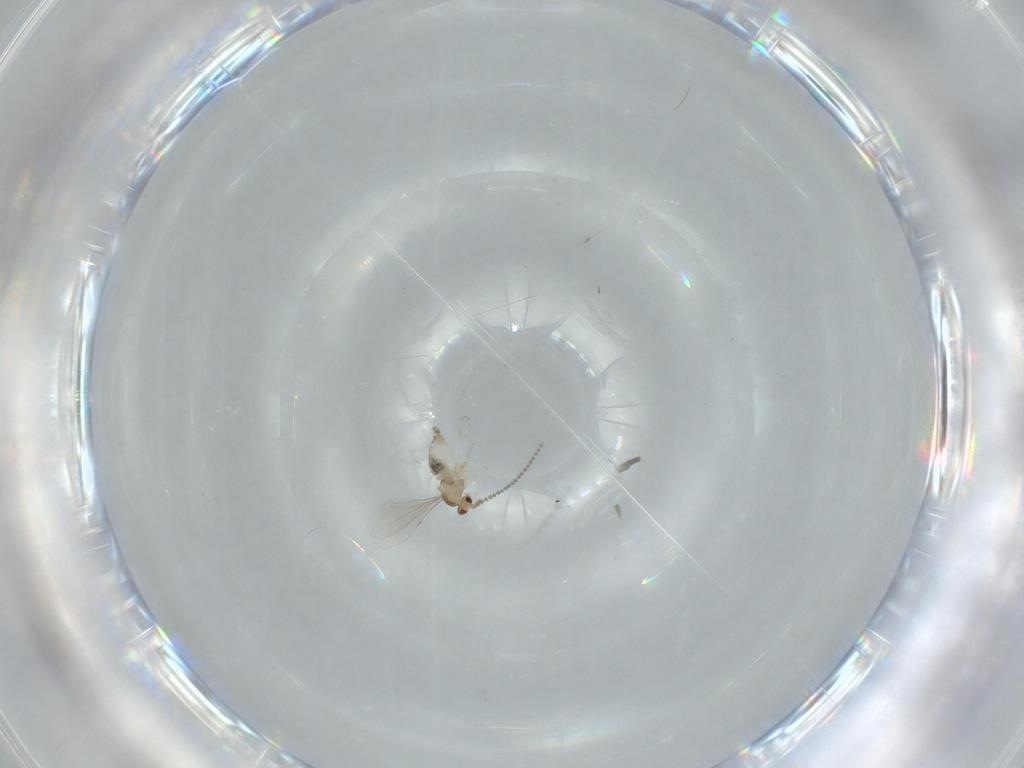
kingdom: Animalia
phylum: Arthropoda
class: Insecta
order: Diptera
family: Cecidomyiidae
